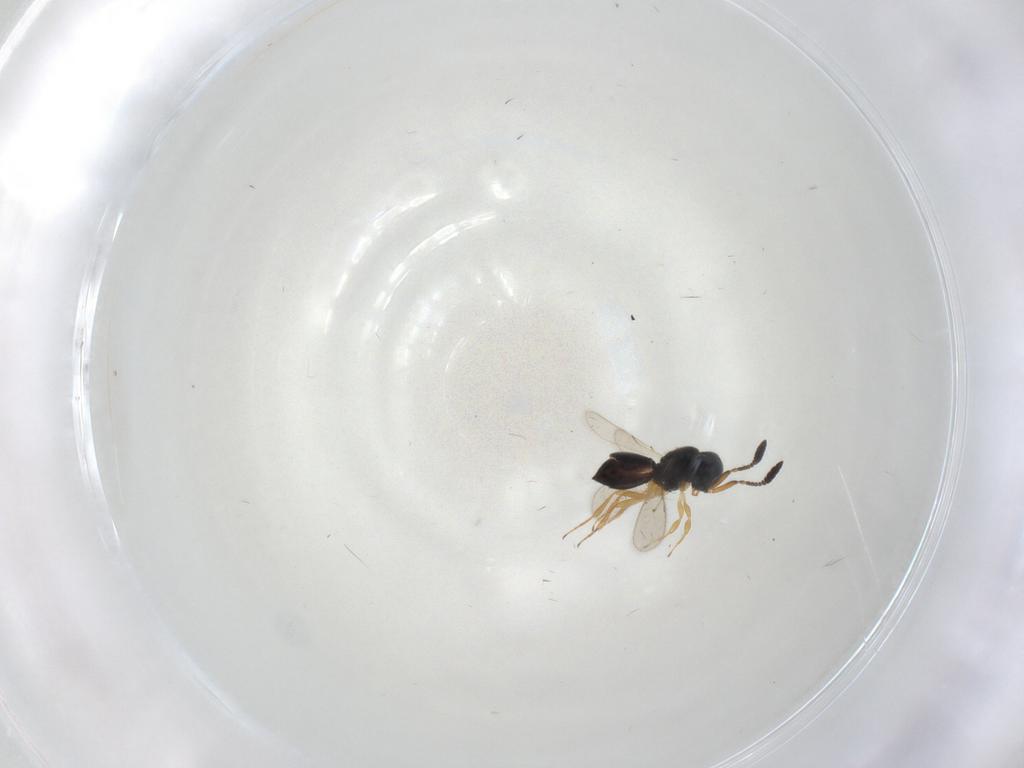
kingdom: Animalia
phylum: Arthropoda
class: Insecta
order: Hymenoptera
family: Scelionidae
